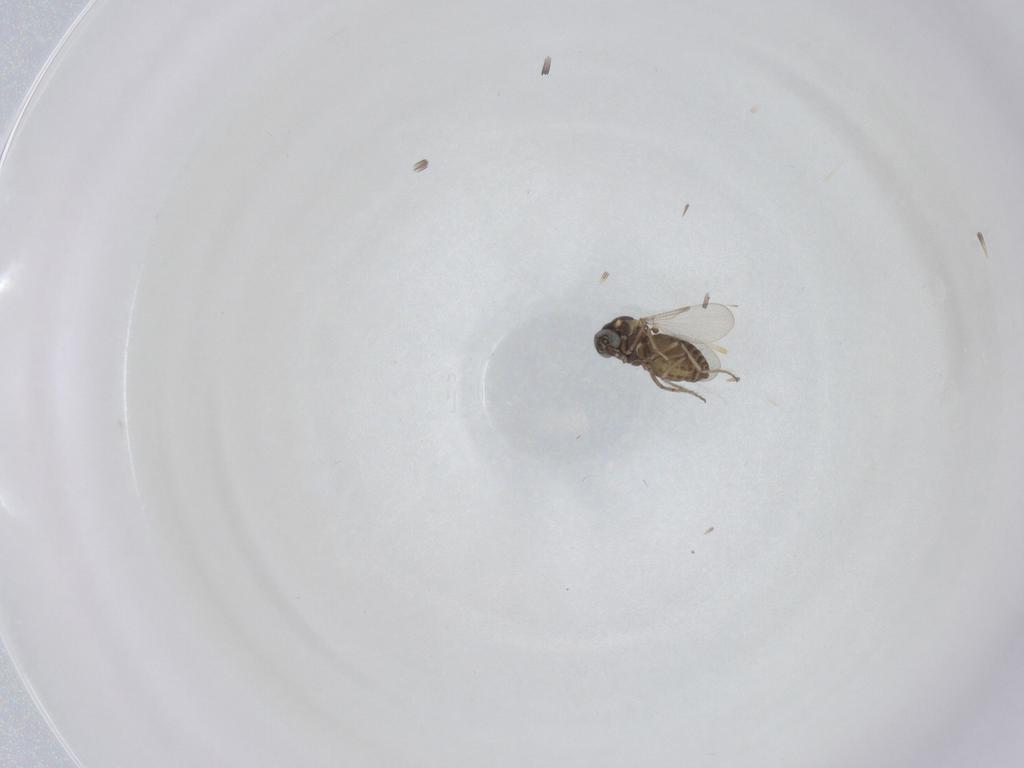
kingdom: Animalia
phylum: Arthropoda
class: Insecta
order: Diptera
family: Ceratopogonidae
